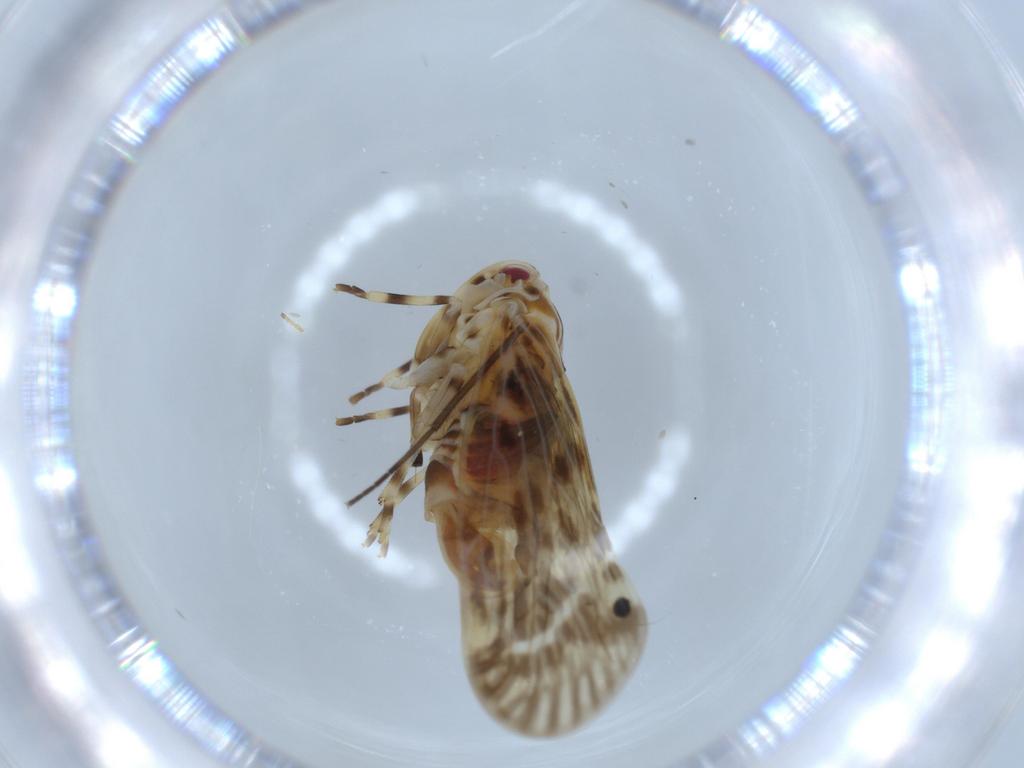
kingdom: Animalia
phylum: Arthropoda
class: Insecta
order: Hemiptera
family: Derbidae
